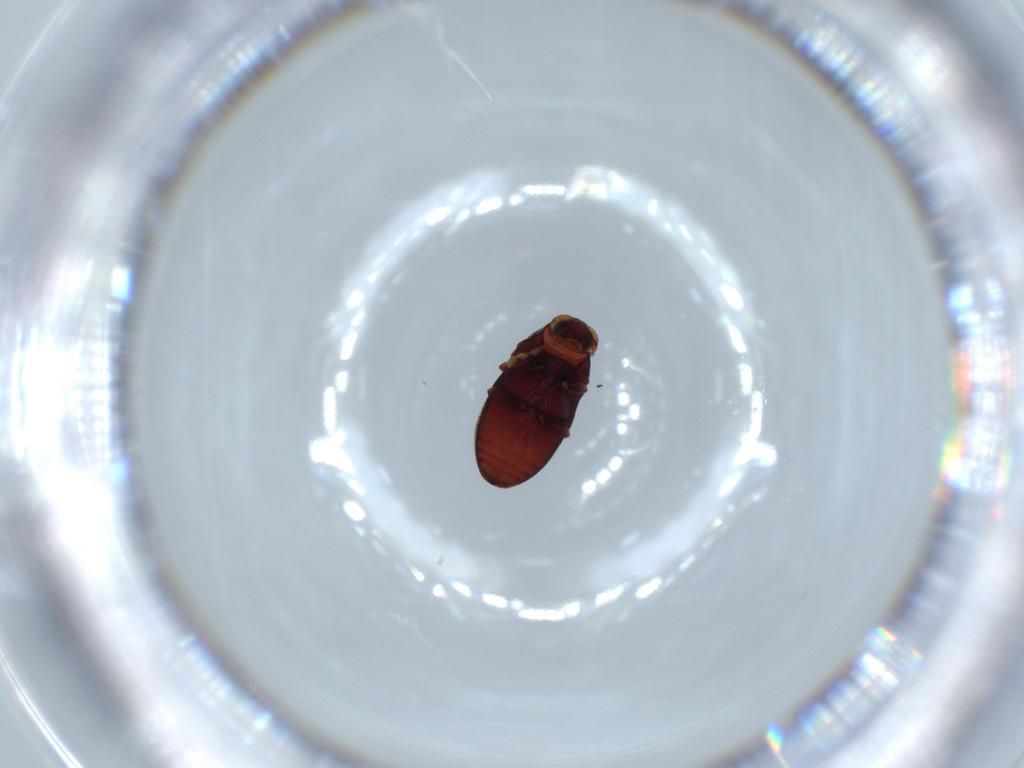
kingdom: Animalia
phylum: Arthropoda
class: Insecta
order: Coleoptera
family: Ptinidae
